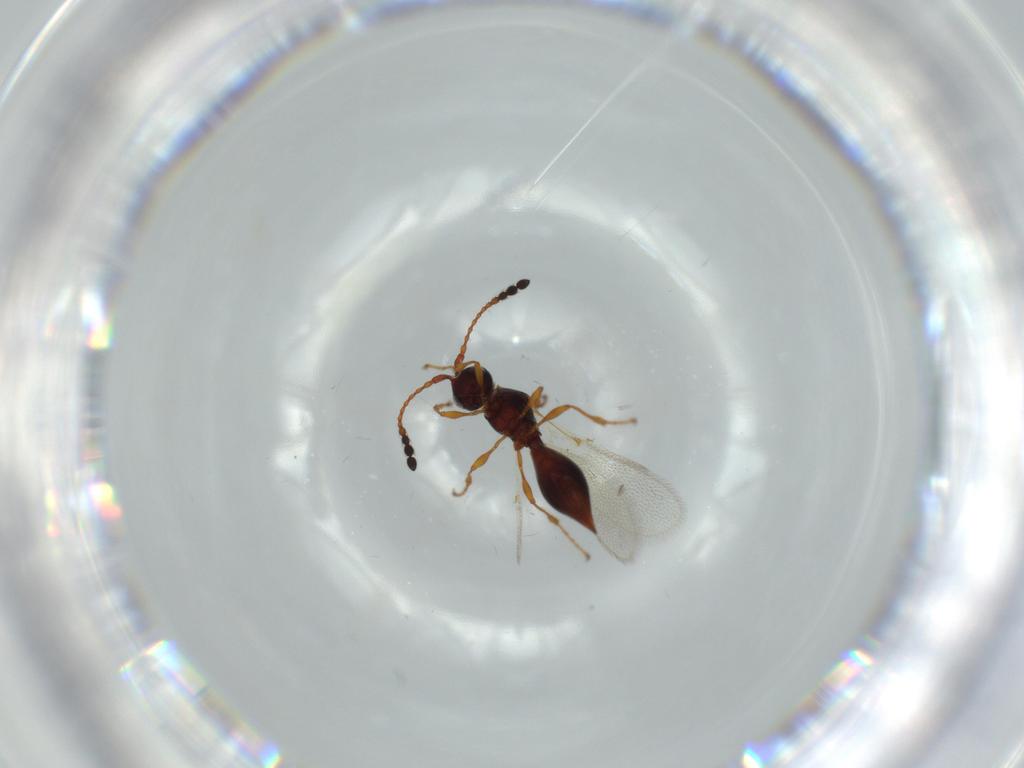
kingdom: Animalia
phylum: Arthropoda
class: Insecta
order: Hymenoptera
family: Diapriidae
